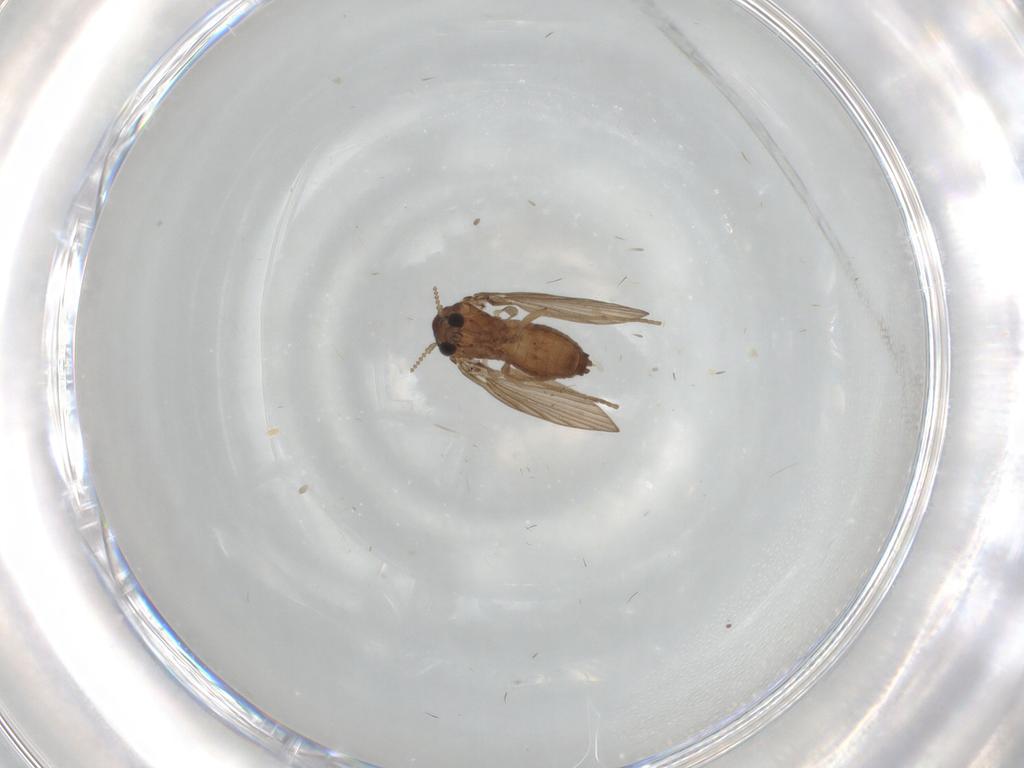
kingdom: Animalia
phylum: Arthropoda
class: Insecta
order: Diptera
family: Psychodidae
